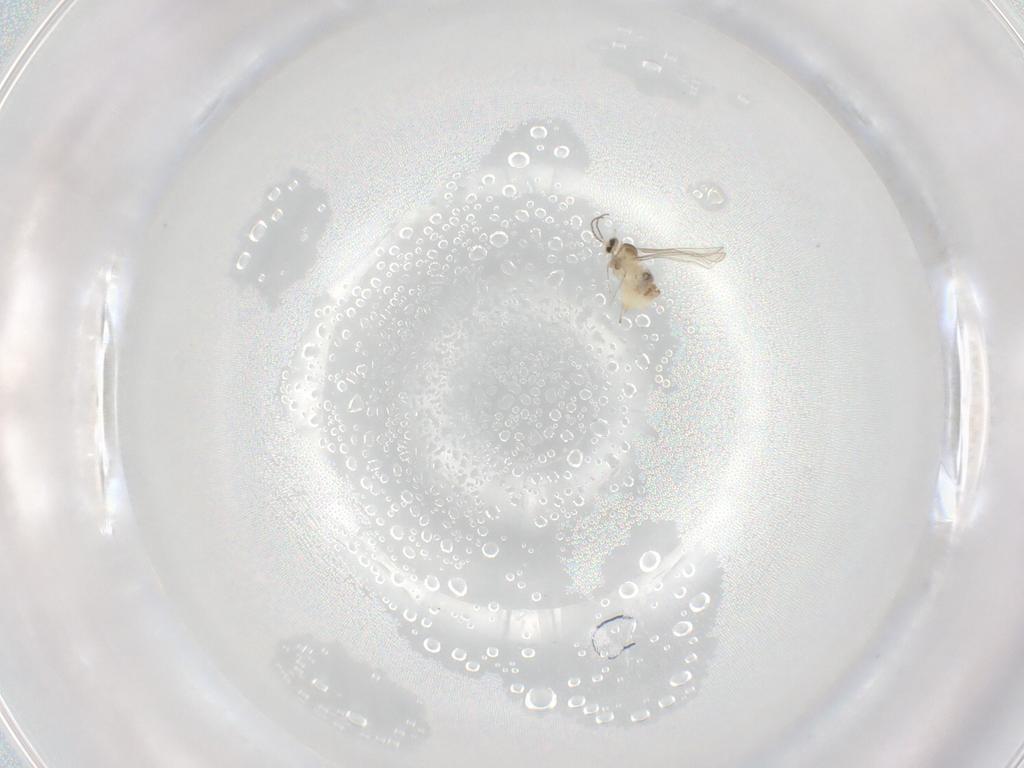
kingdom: Animalia
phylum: Arthropoda
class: Insecta
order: Diptera
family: Cecidomyiidae
